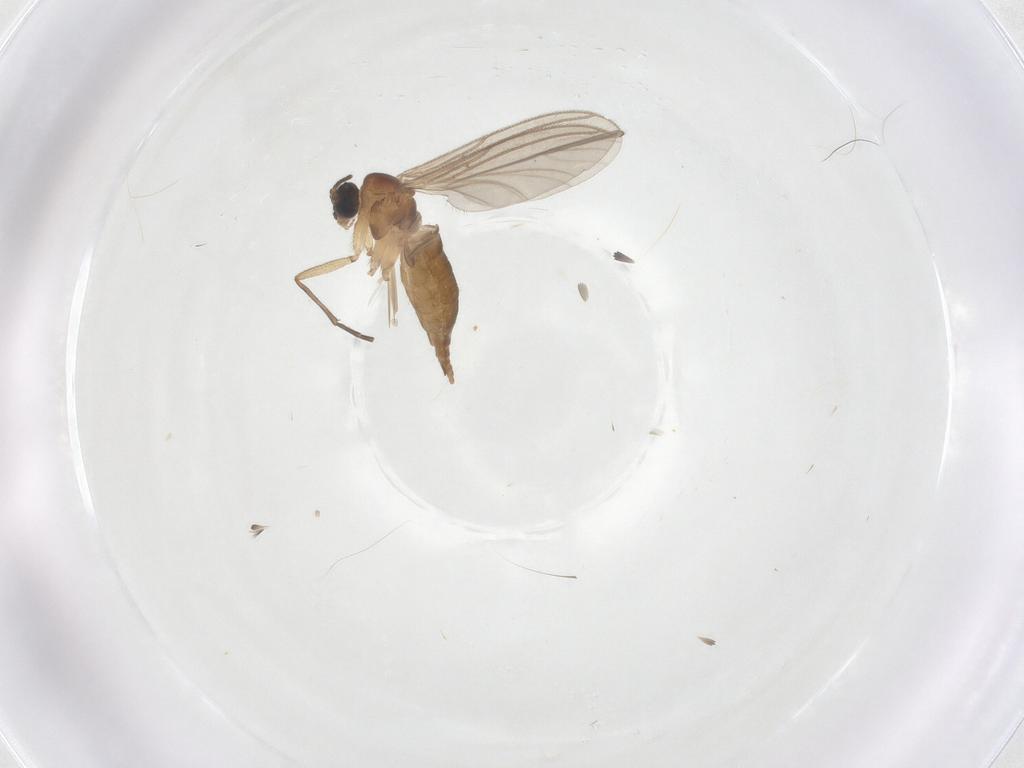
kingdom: Animalia
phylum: Arthropoda
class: Insecta
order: Diptera
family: Sciaridae
